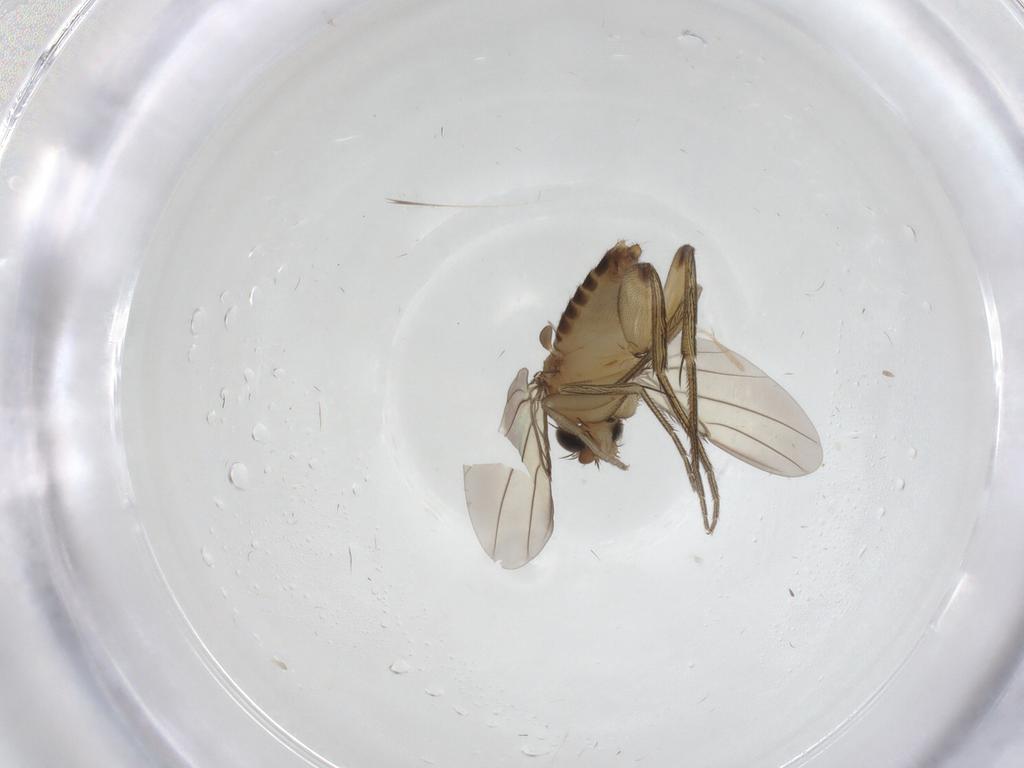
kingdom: Animalia
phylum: Arthropoda
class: Insecta
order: Diptera
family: Phoridae
